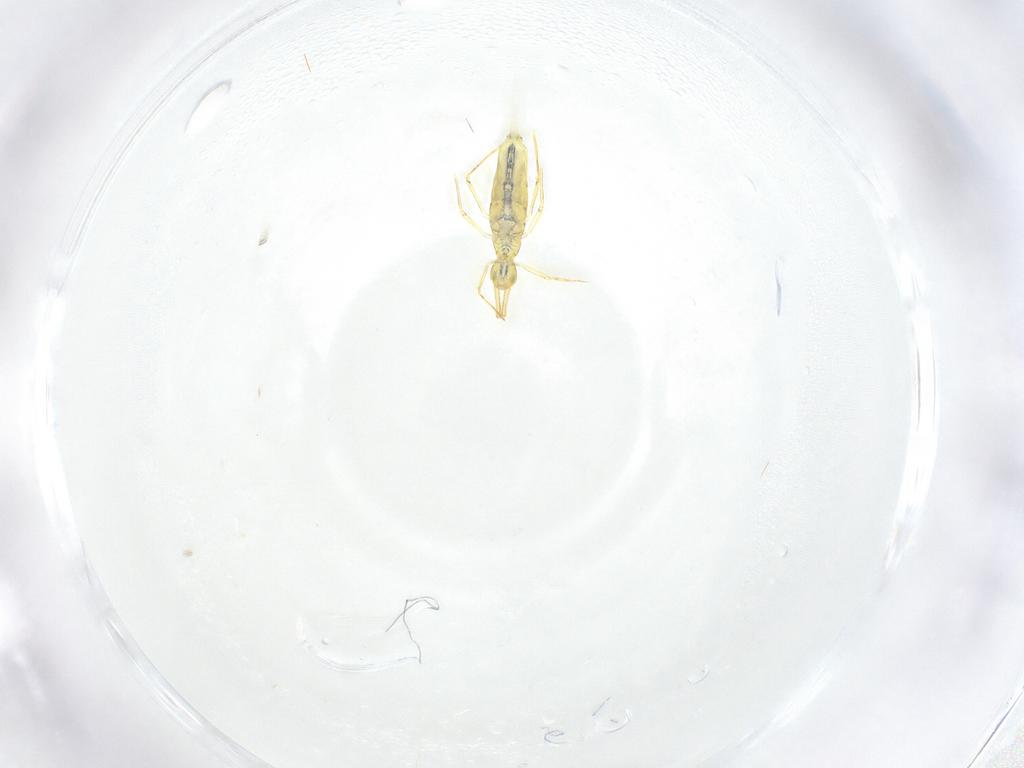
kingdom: Animalia
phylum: Arthropoda
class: Collembola
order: Entomobryomorpha
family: Entomobryidae
